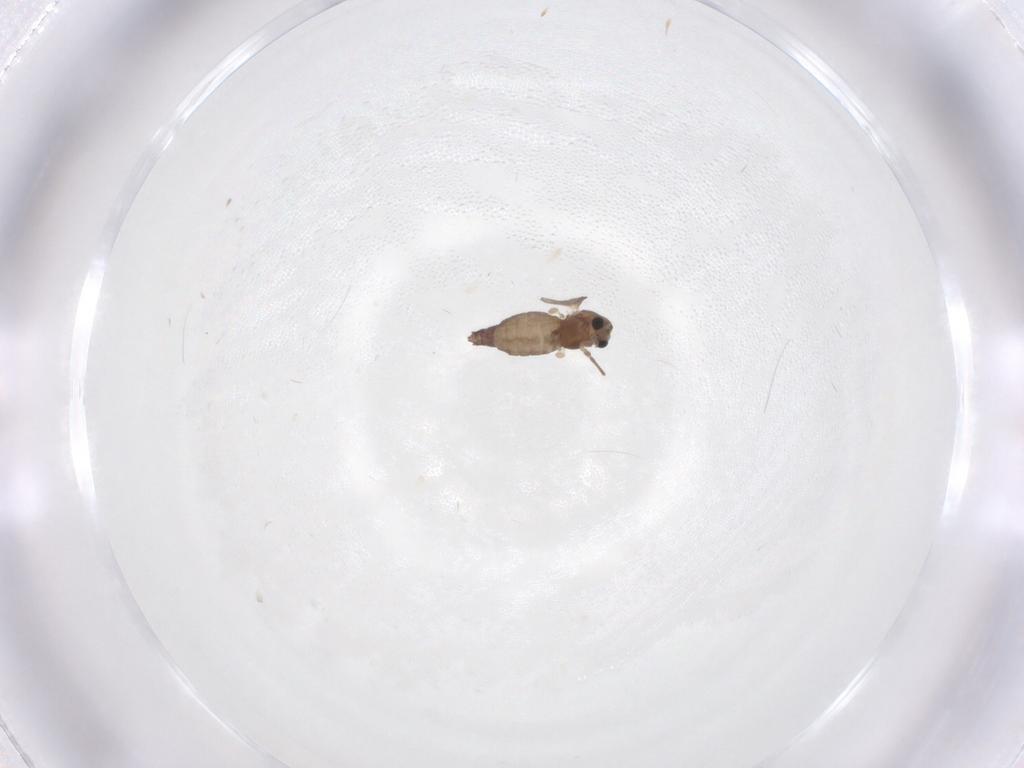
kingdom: Animalia
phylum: Arthropoda
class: Insecta
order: Diptera
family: Chironomidae
